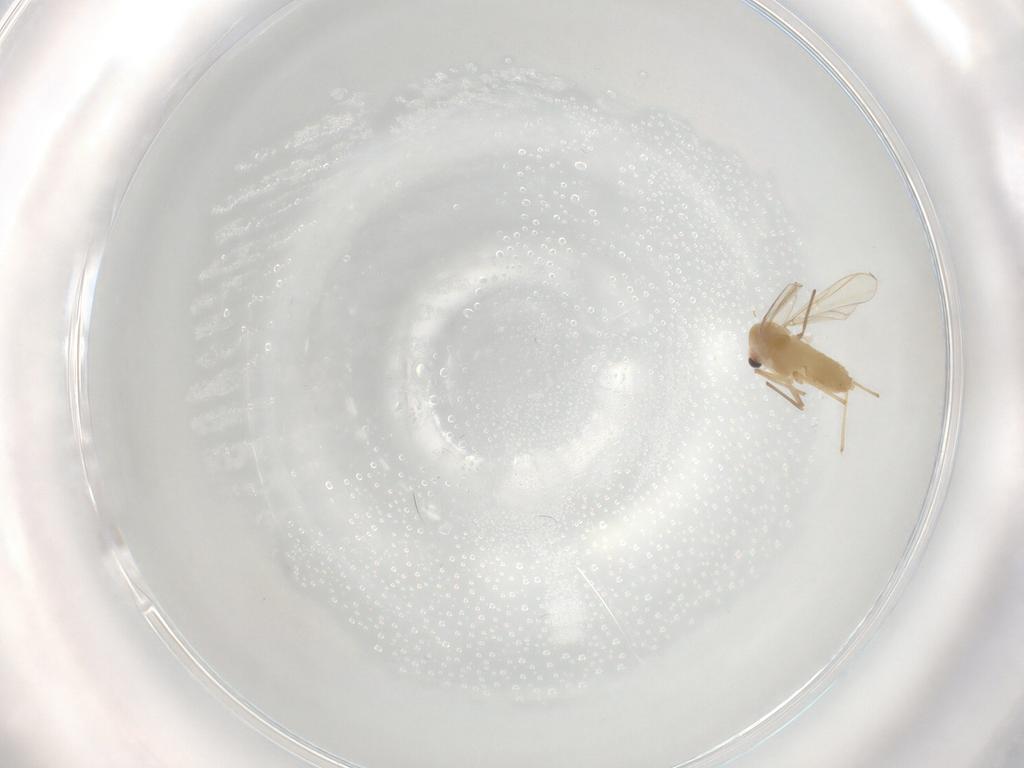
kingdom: Animalia
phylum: Arthropoda
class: Insecta
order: Diptera
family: Chironomidae
